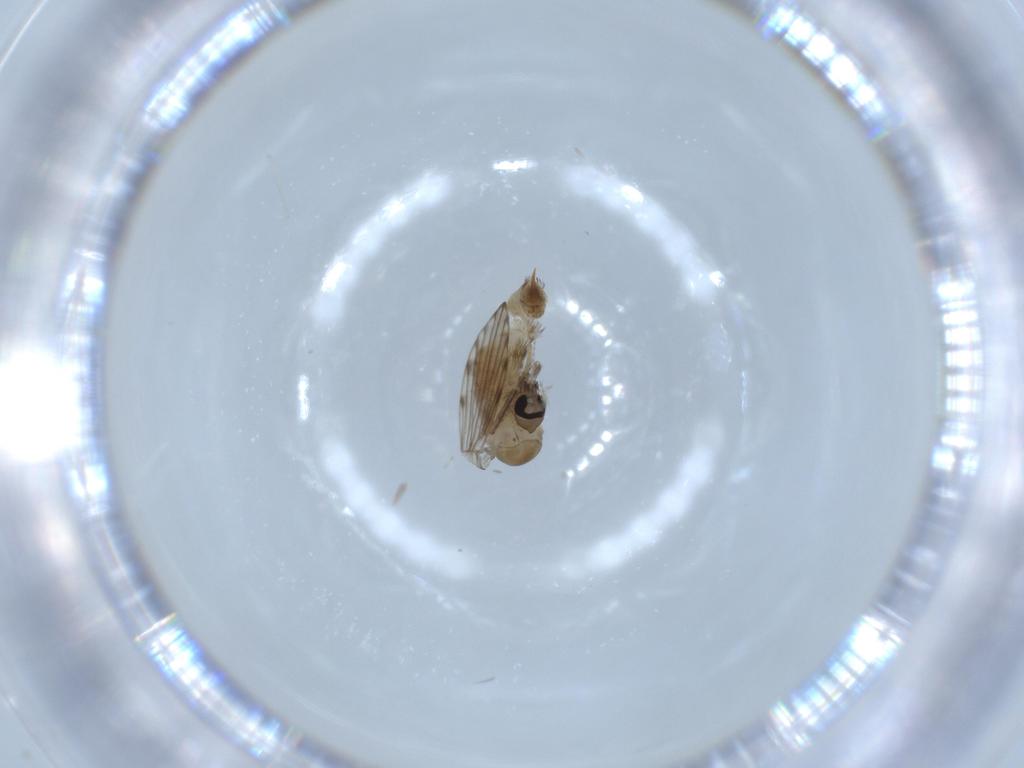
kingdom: Animalia
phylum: Arthropoda
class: Insecta
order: Diptera
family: Psychodidae
